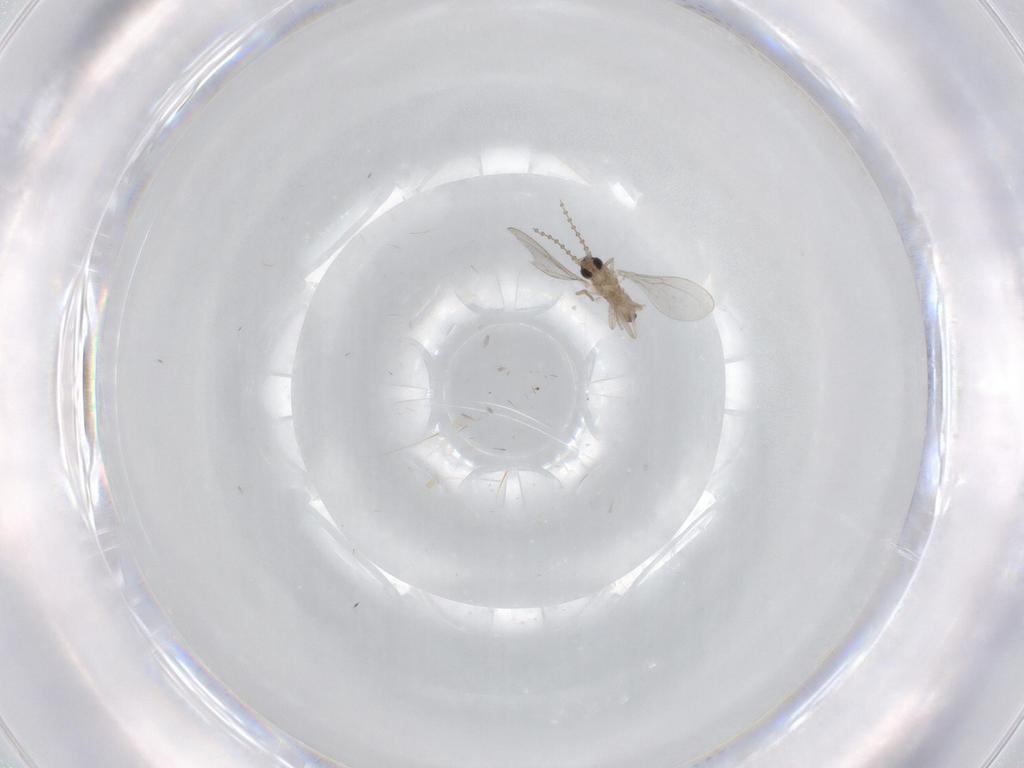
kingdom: Animalia
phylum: Arthropoda
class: Insecta
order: Diptera
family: Cecidomyiidae
